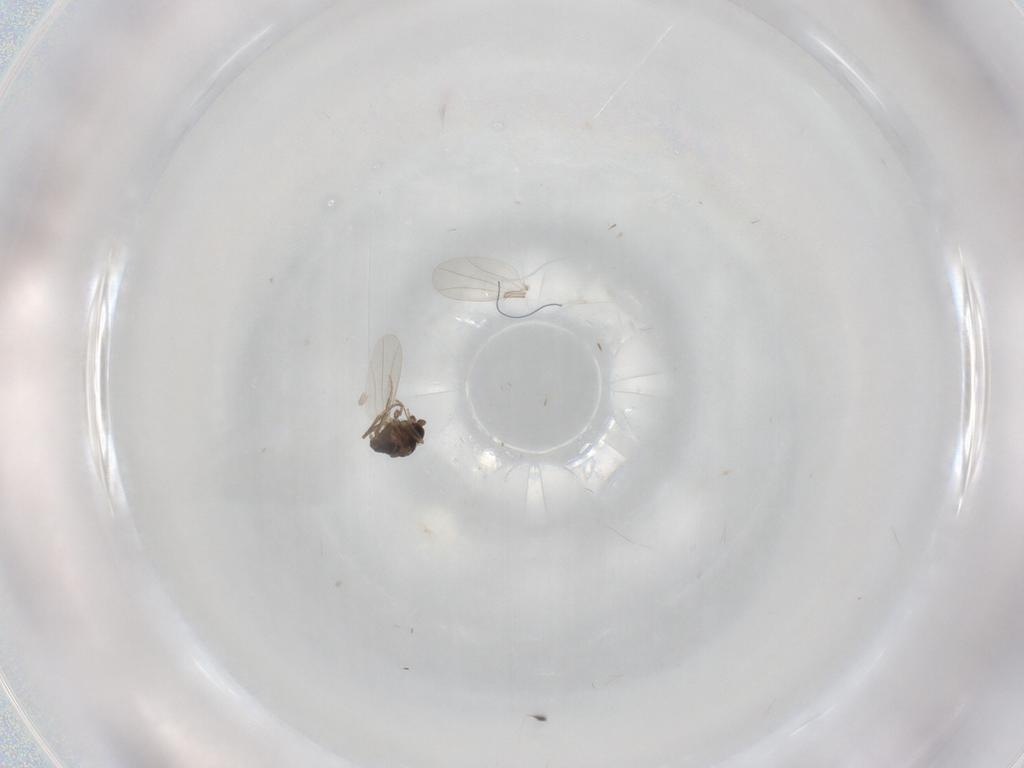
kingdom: Animalia
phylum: Arthropoda
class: Insecta
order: Diptera
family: Phoridae
